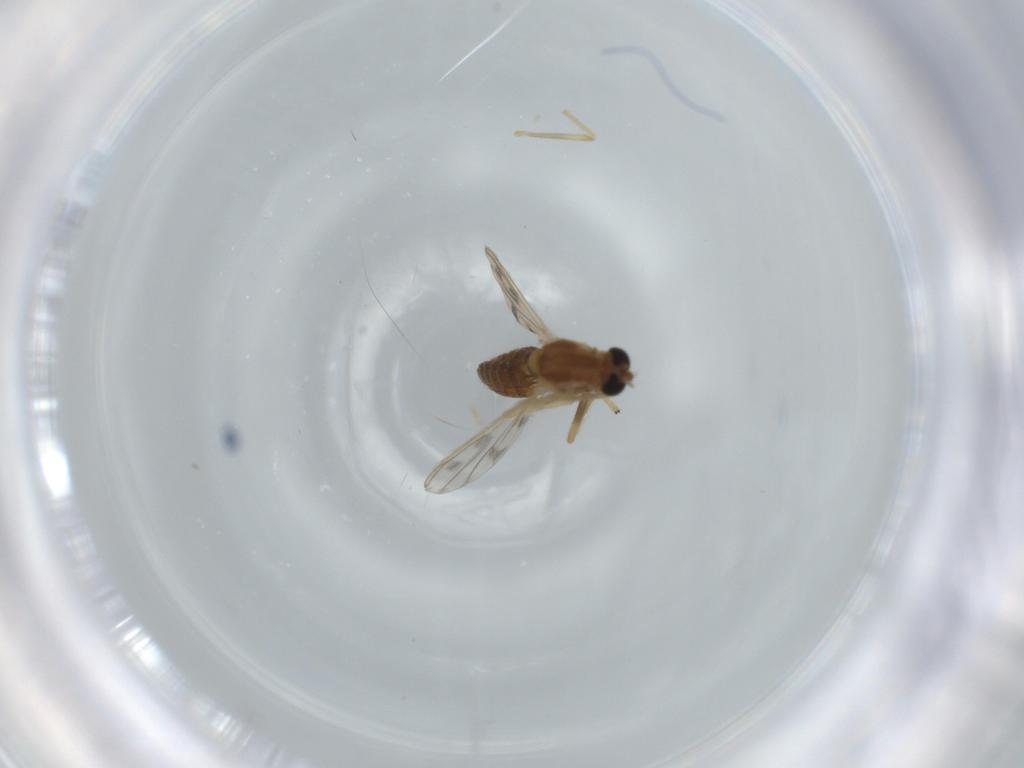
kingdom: Animalia
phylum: Arthropoda
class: Insecta
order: Diptera
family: Chironomidae
